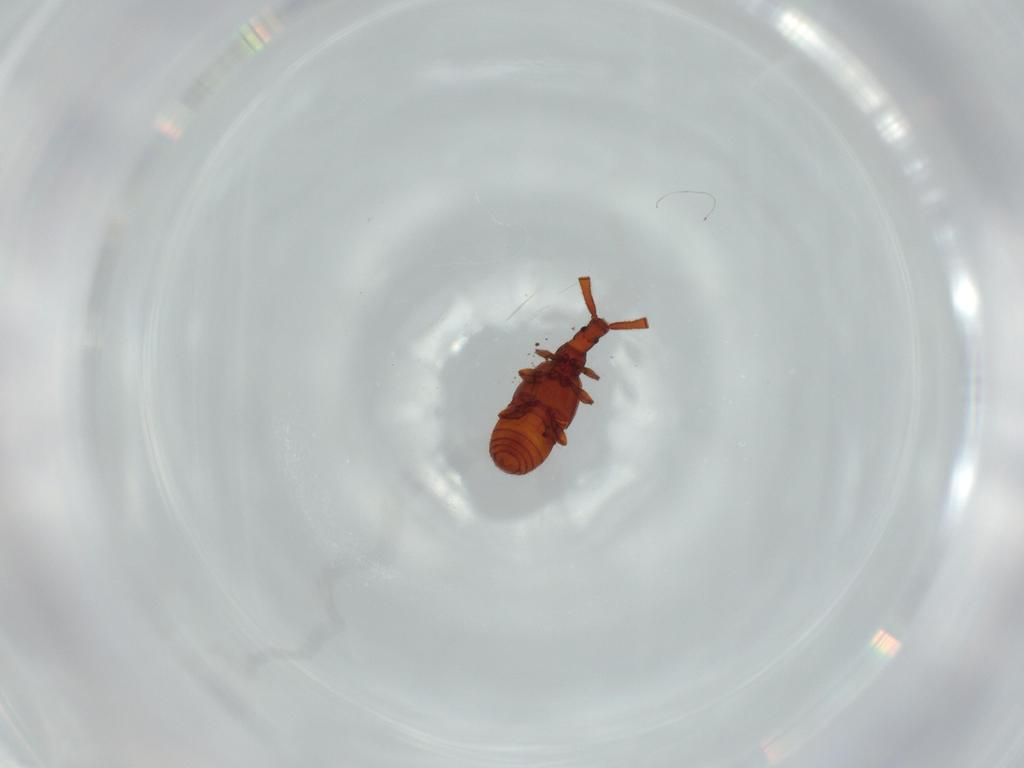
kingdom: Animalia
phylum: Arthropoda
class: Insecta
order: Coleoptera
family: Staphylinidae
